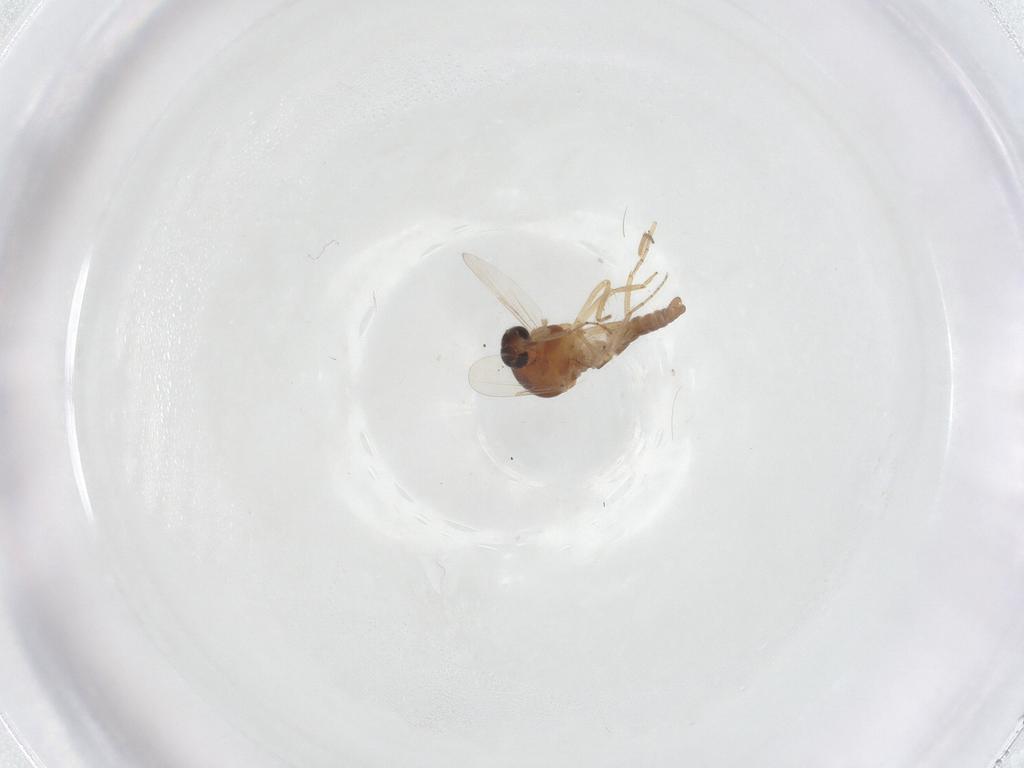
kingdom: Animalia
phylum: Arthropoda
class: Insecta
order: Diptera
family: Ceratopogonidae
